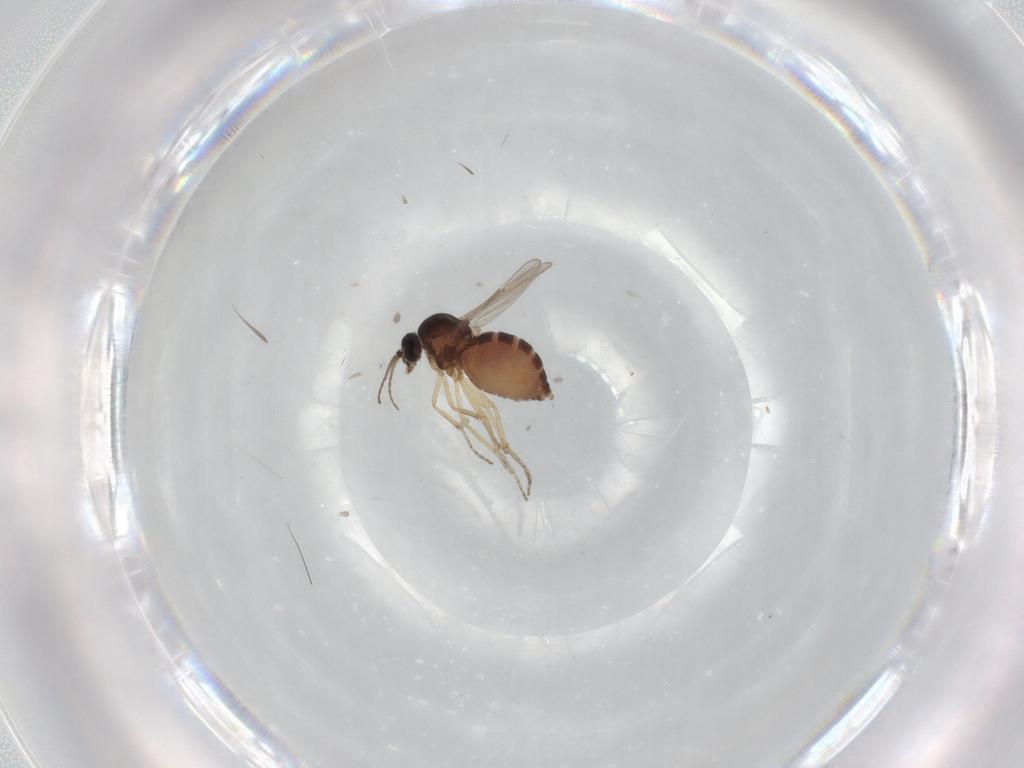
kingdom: Animalia
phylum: Arthropoda
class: Insecta
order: Diptera
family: Ceratopogonidae
